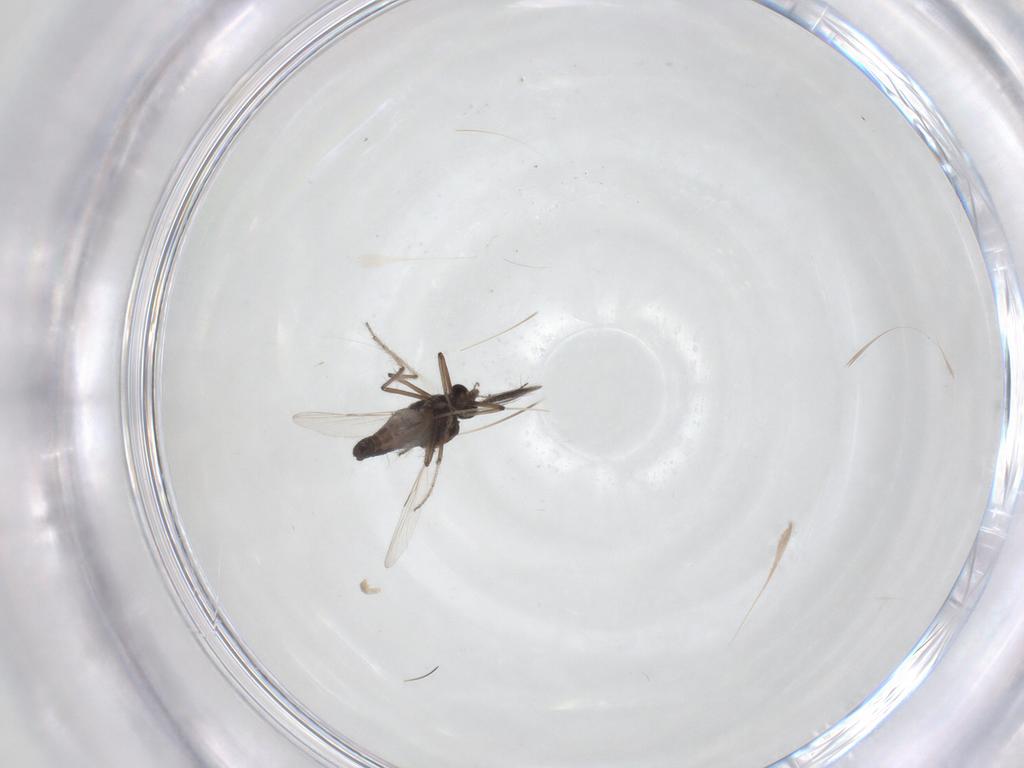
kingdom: Animalia
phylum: Arthropoda
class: Insecta
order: Diptera
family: Ceratopogonidae
